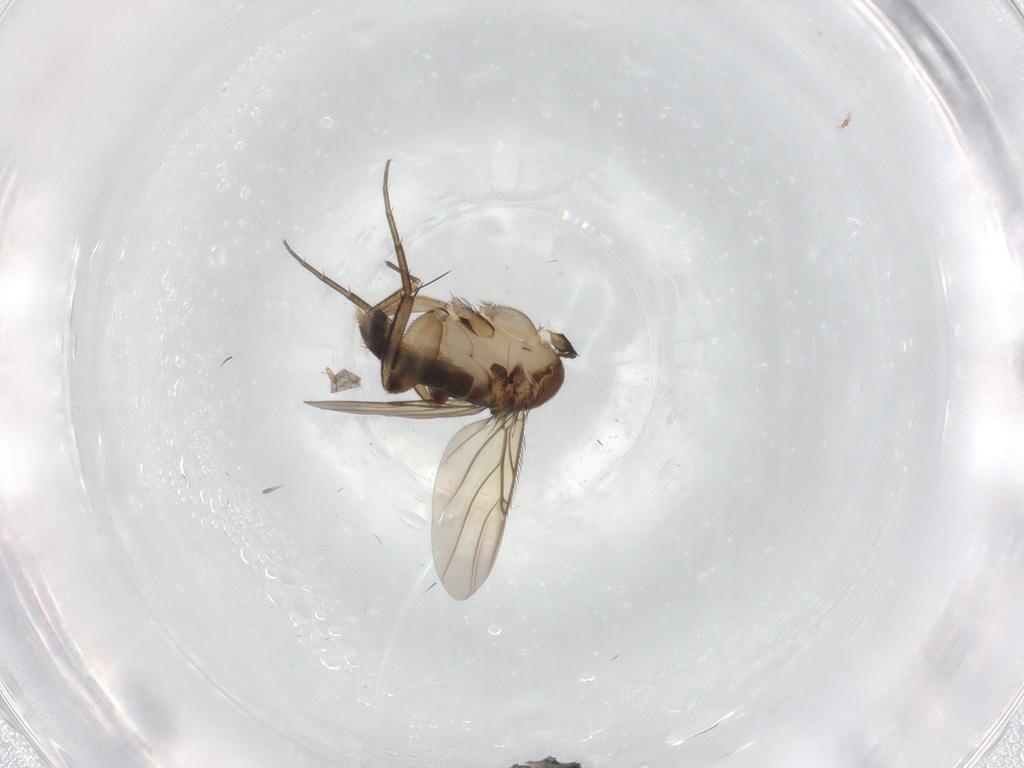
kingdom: Animalia
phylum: Arthropoda
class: Insecta
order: Diptera
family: Phoridae
